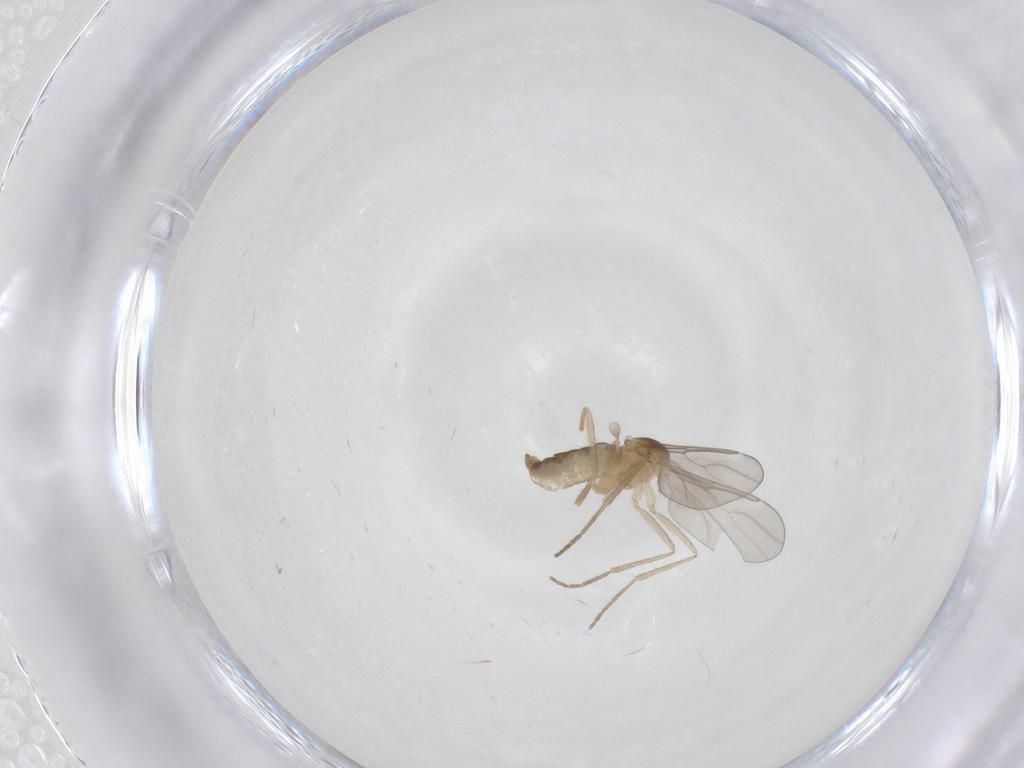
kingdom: Animalia
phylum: Arthropoda
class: Insecta
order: Diptera
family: Cecidomyiidae
